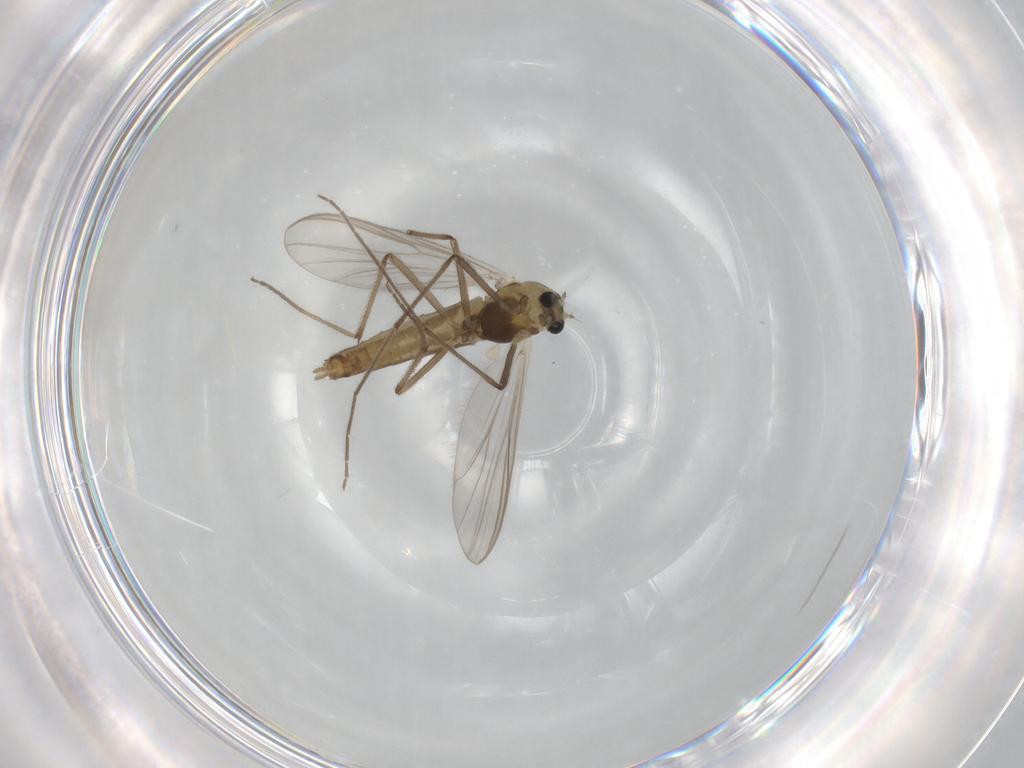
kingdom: Animalia
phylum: Arthropoda
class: Insecta
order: Diptera
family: Chironomidae
